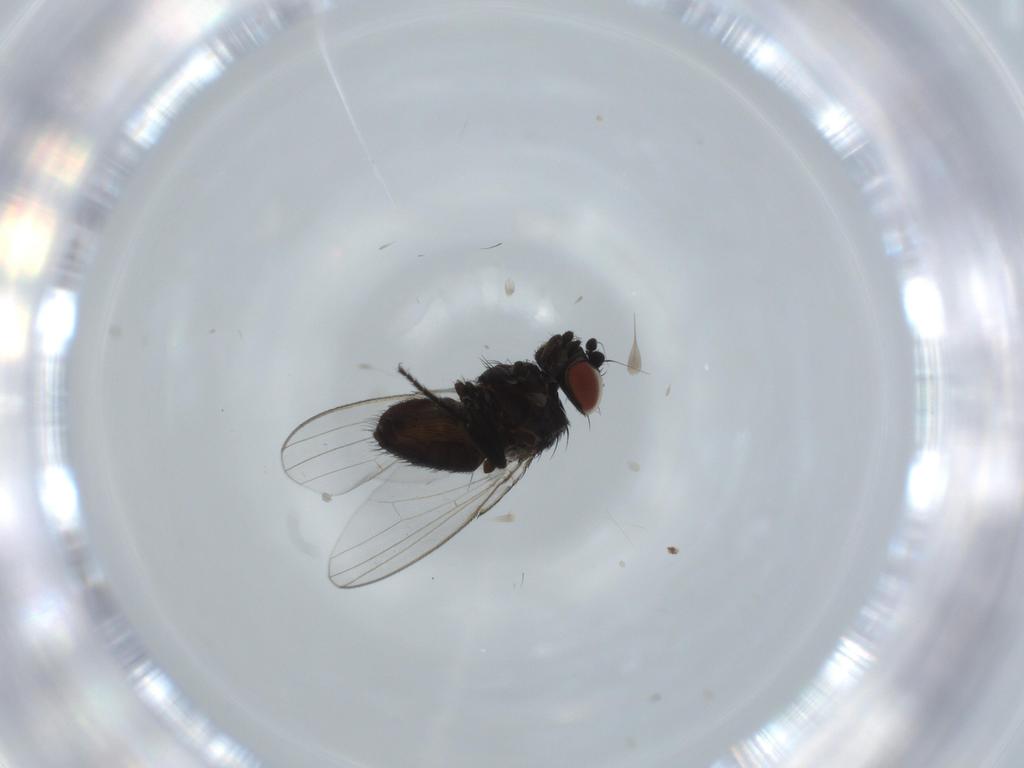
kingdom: Animalia
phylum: Arthropoda
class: Insecta
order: Diptera
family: Milichiidae
